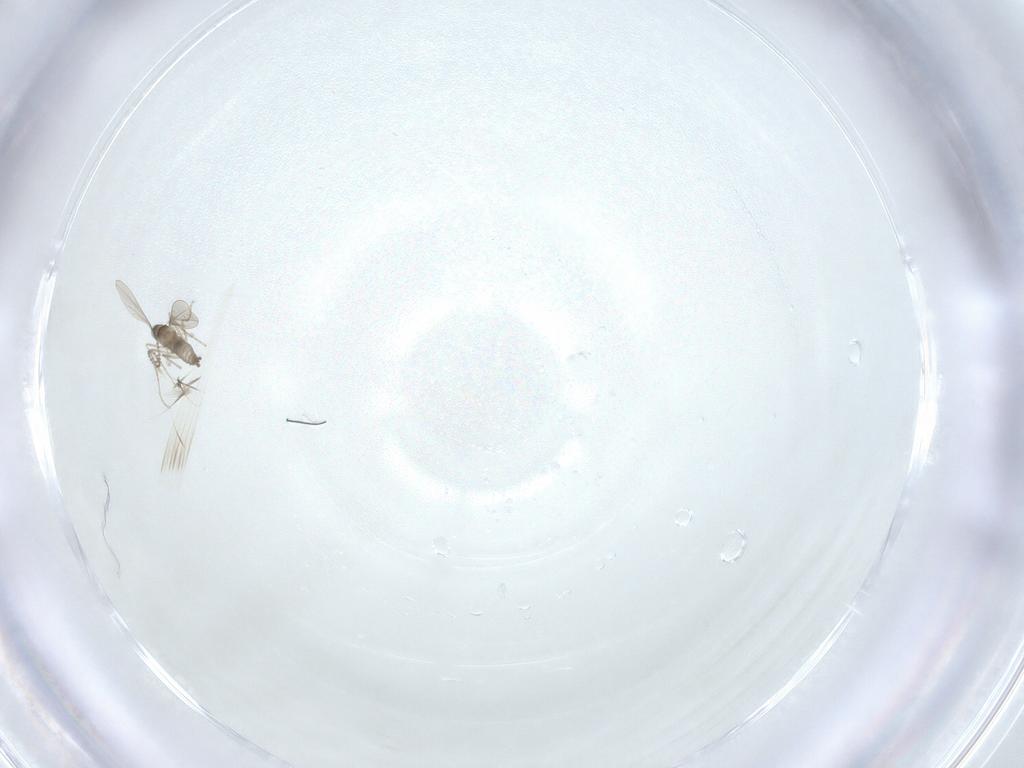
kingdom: Animalia
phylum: Arthropoda
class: Insecta
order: Diptera
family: Cecidomyiidae
